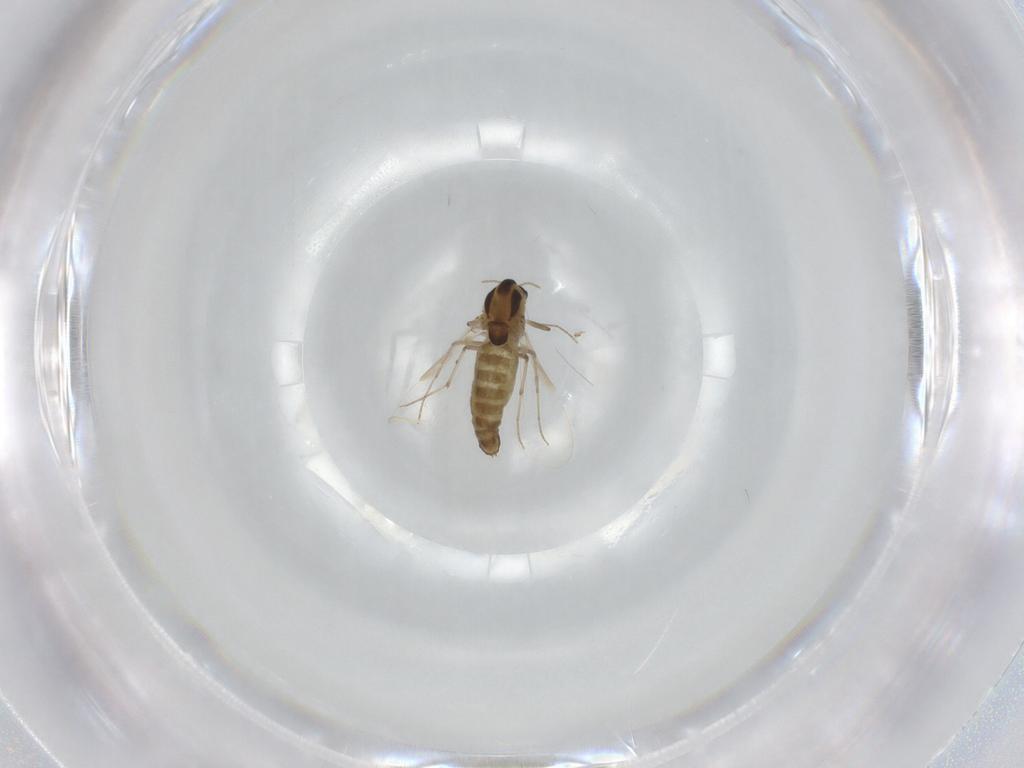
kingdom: Animalia
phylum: Arthropoda
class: Insecta
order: Diptera
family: Chironomidae
